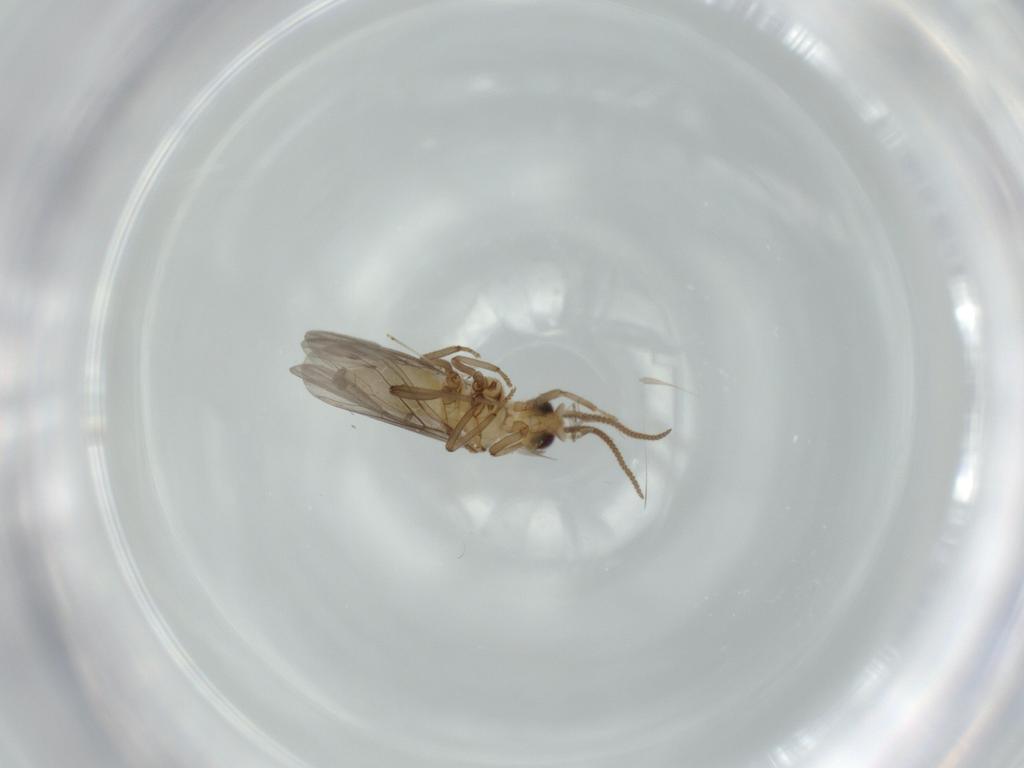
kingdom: Animalia
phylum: Arthropoda
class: Insecta
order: Neuroptera
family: Coniopterygidae
